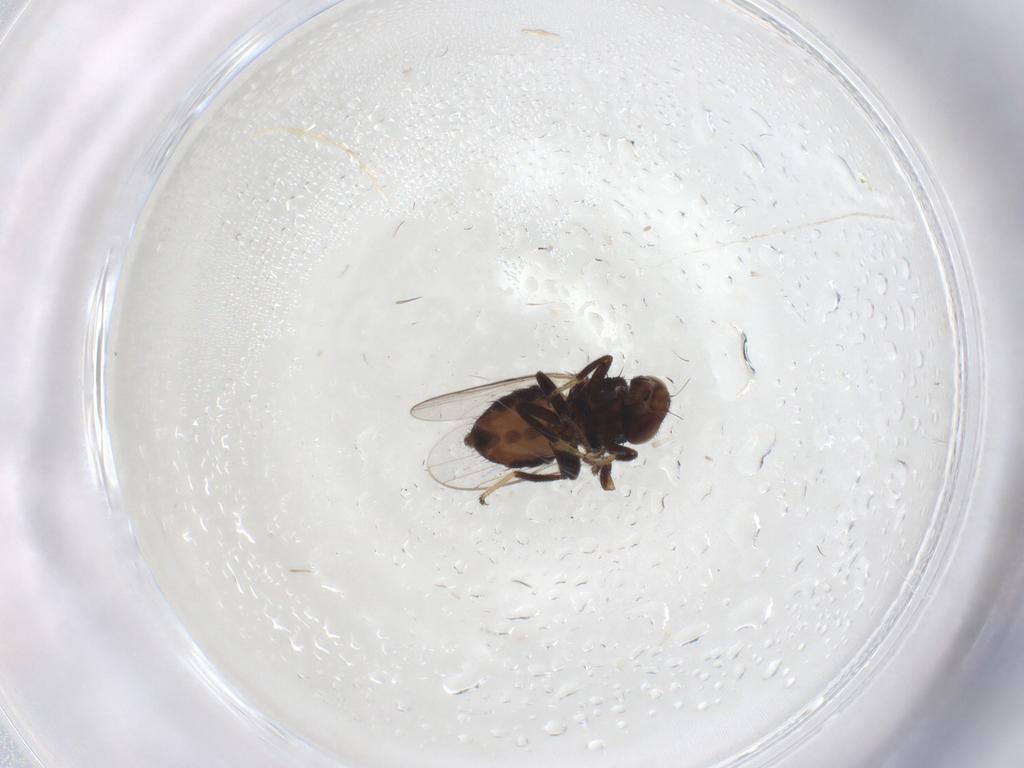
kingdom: Animalia
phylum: Arthropoda
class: Insecta
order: Diptera
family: Chloropidae
